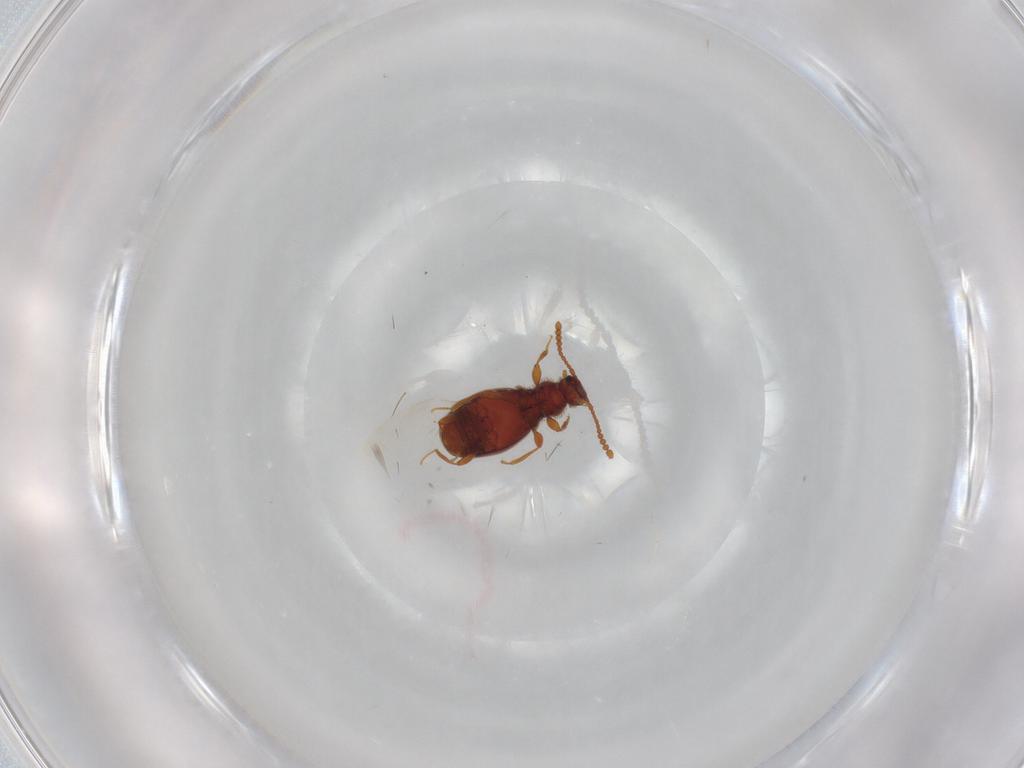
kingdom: Animalia
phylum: Arthropoda
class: Insecta
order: Coleoptera
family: Staphylinidae
